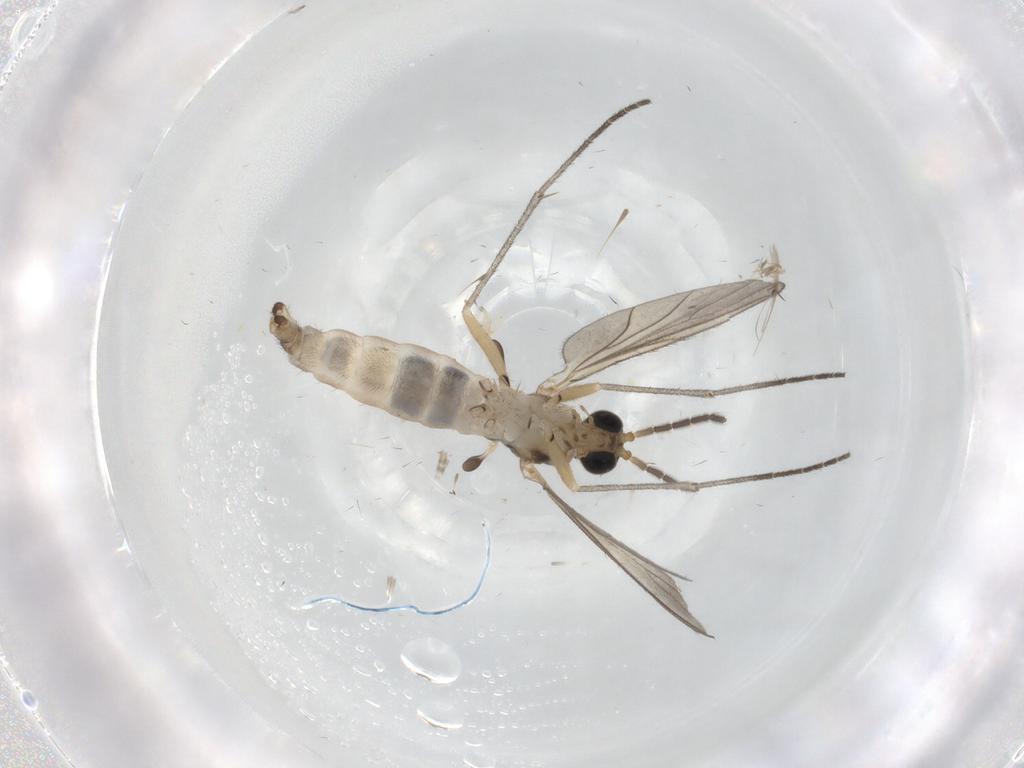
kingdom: Animalia
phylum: Arthropoda
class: Insecta
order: Diptera
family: Sciaridae
